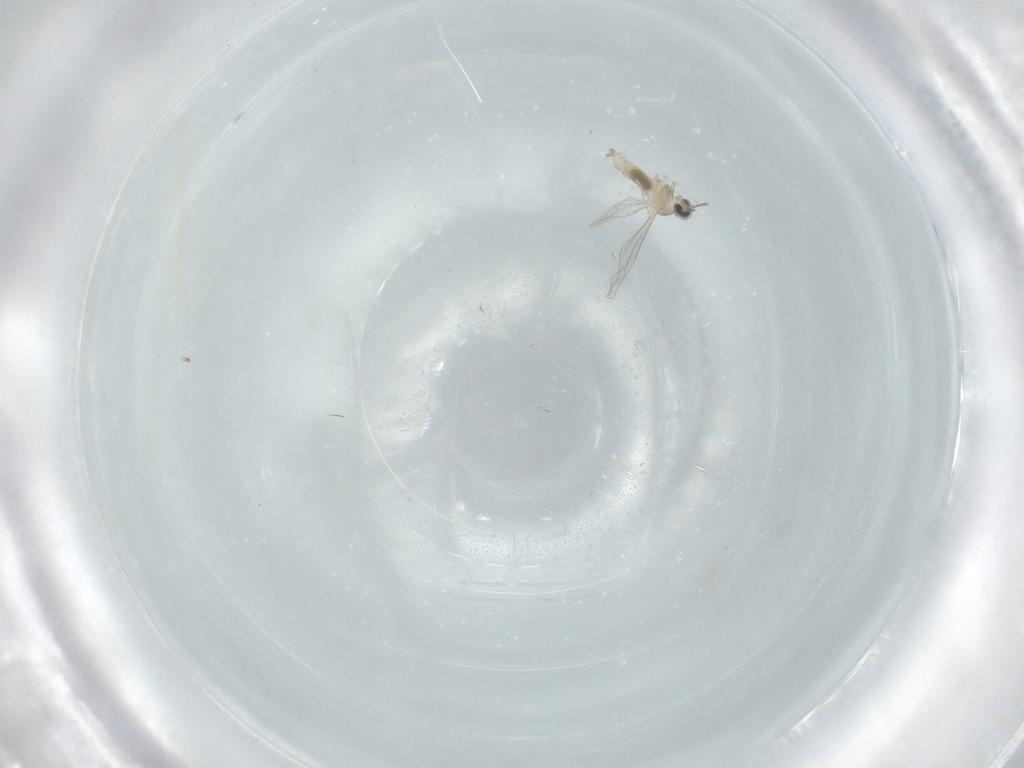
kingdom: Animalia
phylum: Arthropoda
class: Insecta
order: Diptera
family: Cecidomyiidae
